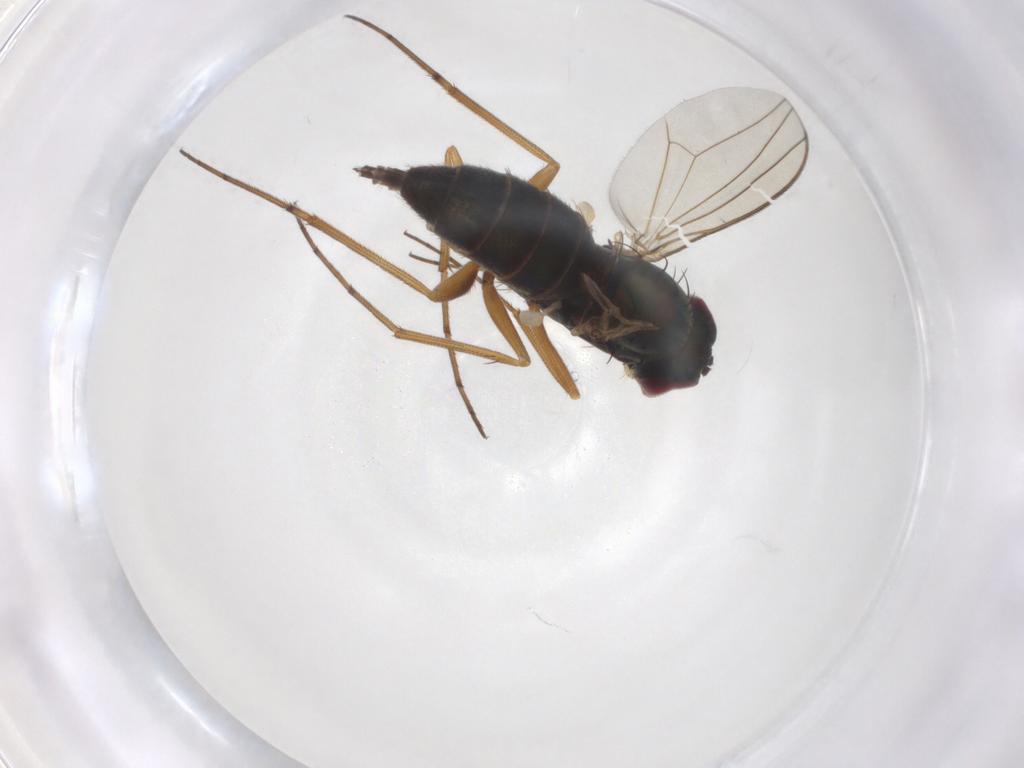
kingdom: Animalia
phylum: Arthropoda
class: Insecta
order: Diptera
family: Dolichopodidae
